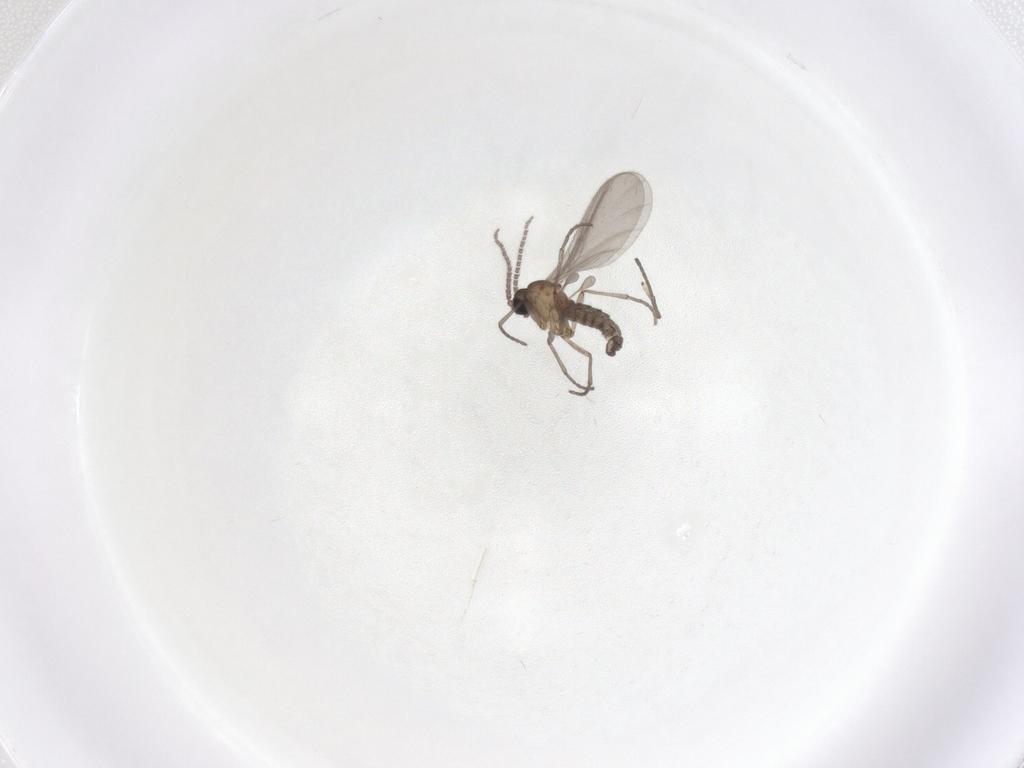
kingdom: Animalia
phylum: Arthropoda
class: Insecta
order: Diptera
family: Sciaridae
